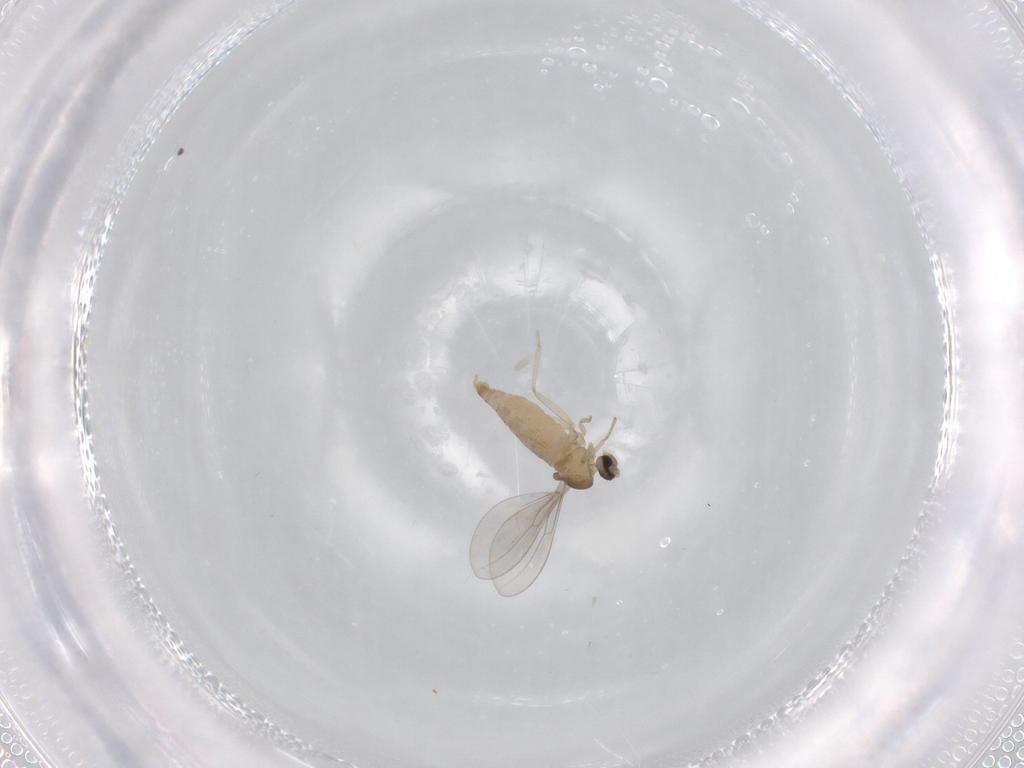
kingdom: Animalia
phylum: Arthropoda
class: Insecta
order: Diptera
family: Cecidomyiidae
